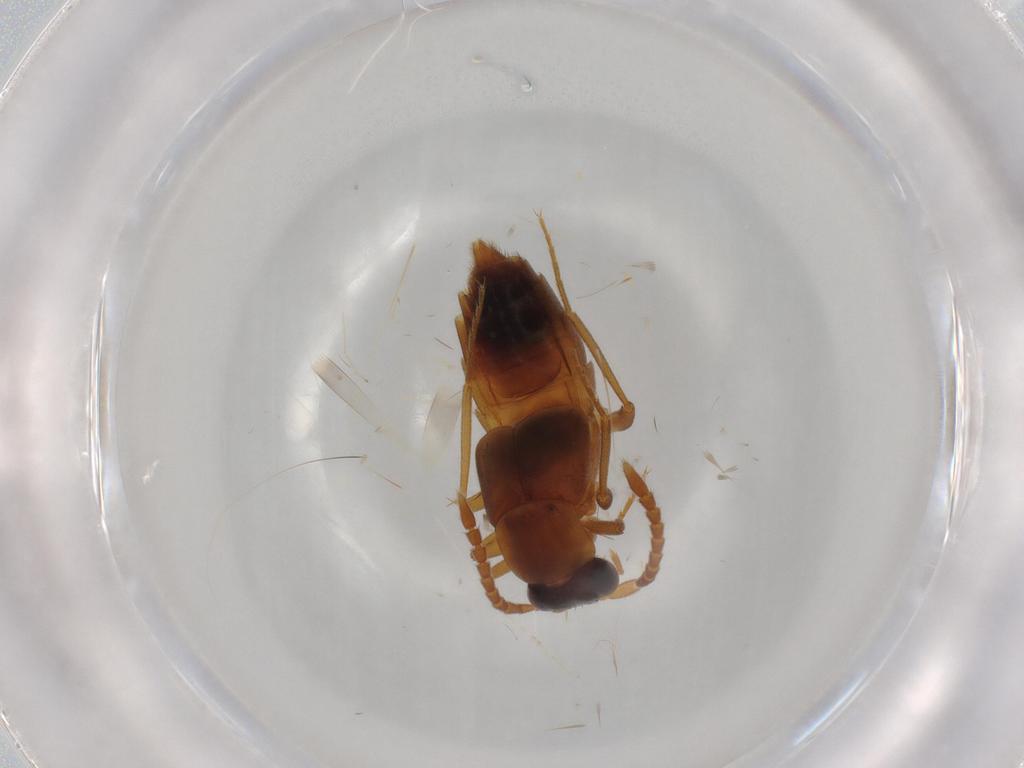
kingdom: Animalia
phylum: Arthropoda
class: Insecta
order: Coleoptera
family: Staphylinidae
